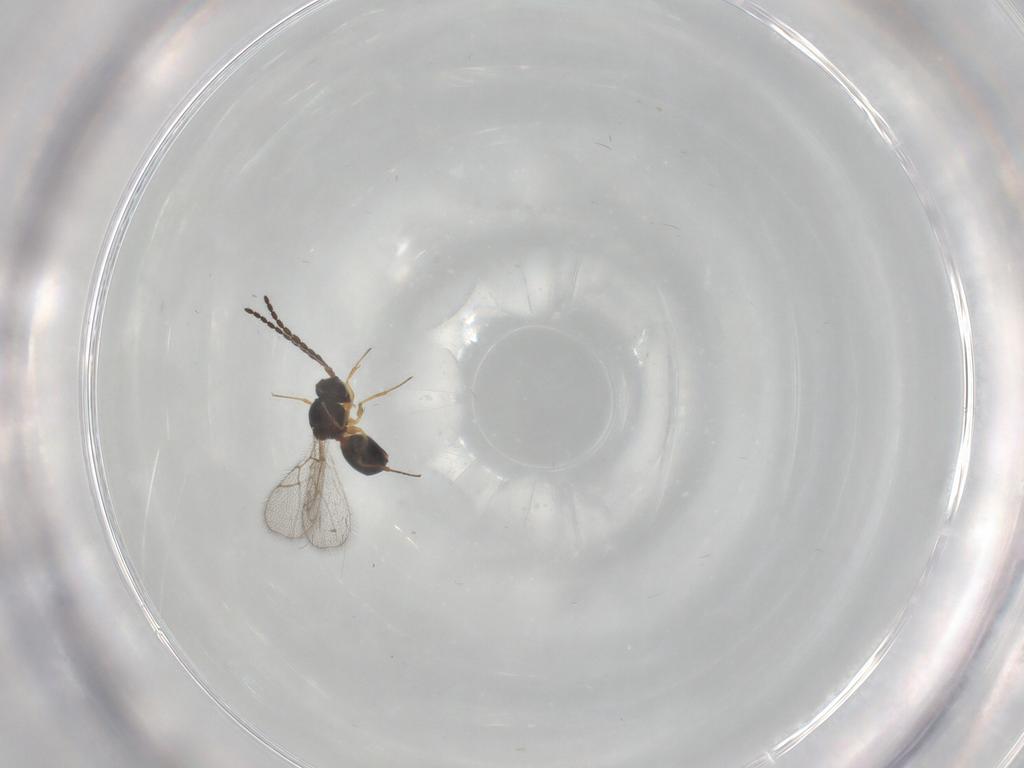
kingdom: Animalia
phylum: Arthropoda
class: Insecta
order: Hymenoptera
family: Figitidae
